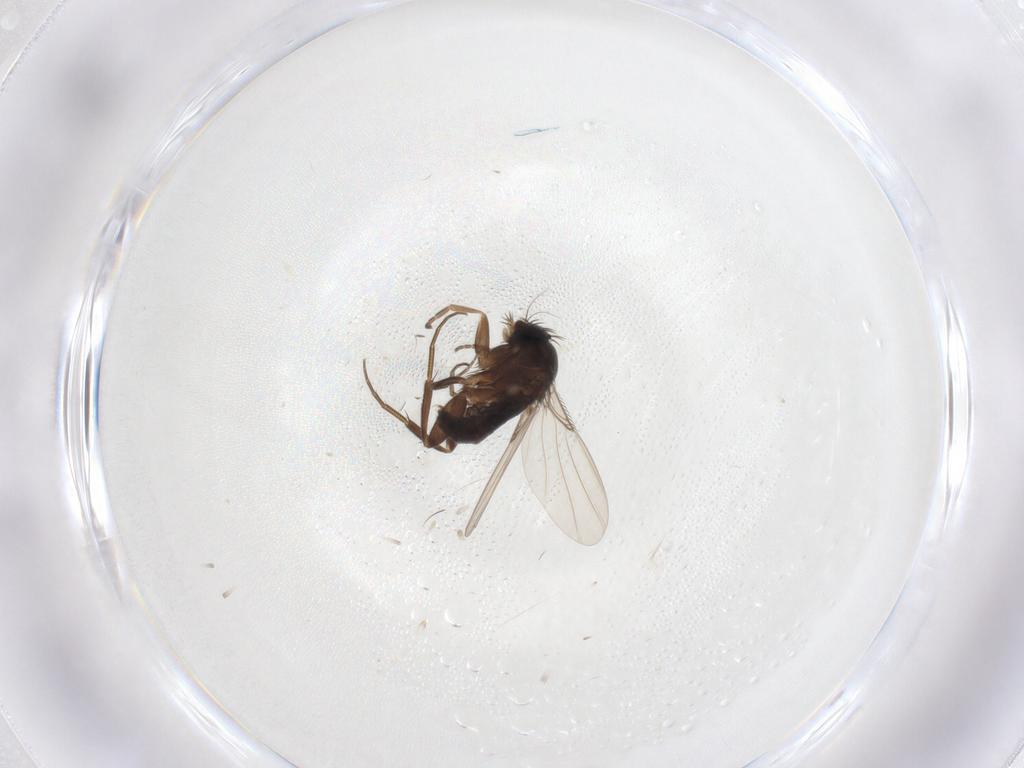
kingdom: Animalia
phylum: Arthropoda
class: Insecta
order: Diptera
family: Phoridae
